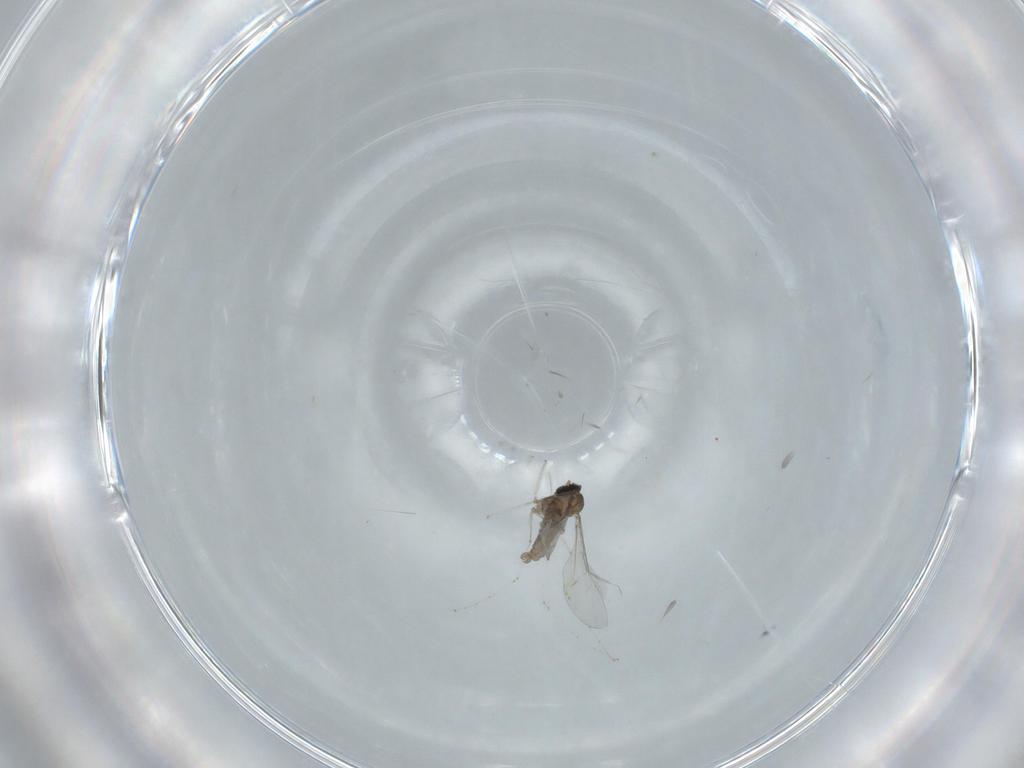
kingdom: Animalia
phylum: Arthropoda
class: Insecta
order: Diptera
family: Cecidomyiidae
